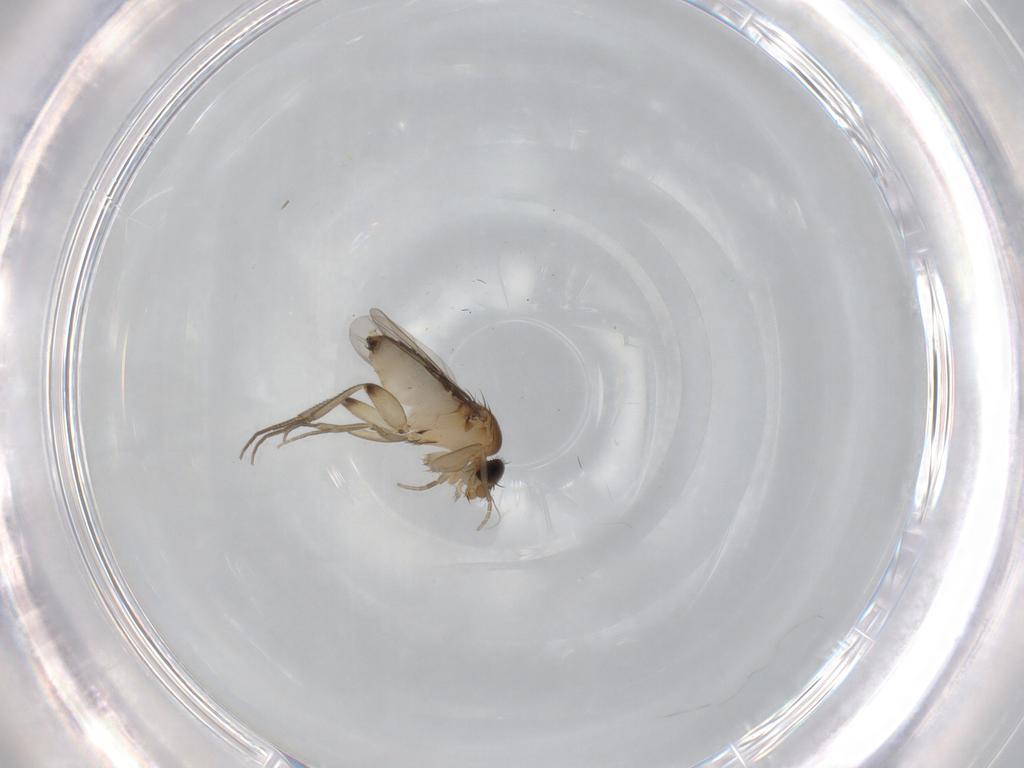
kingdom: Animalia
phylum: Arthropoda
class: Insecta
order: Diptera
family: Phoridae
